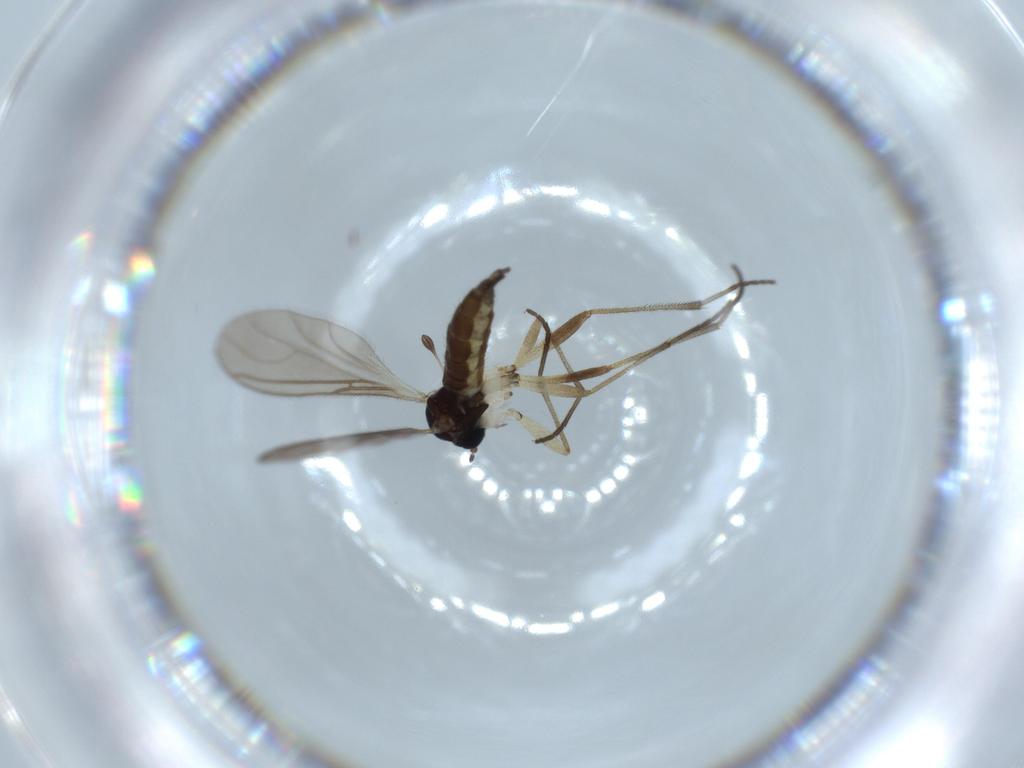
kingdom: Animalia
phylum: Arthropoda
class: Insecta
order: Diptera
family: Sciaridae
